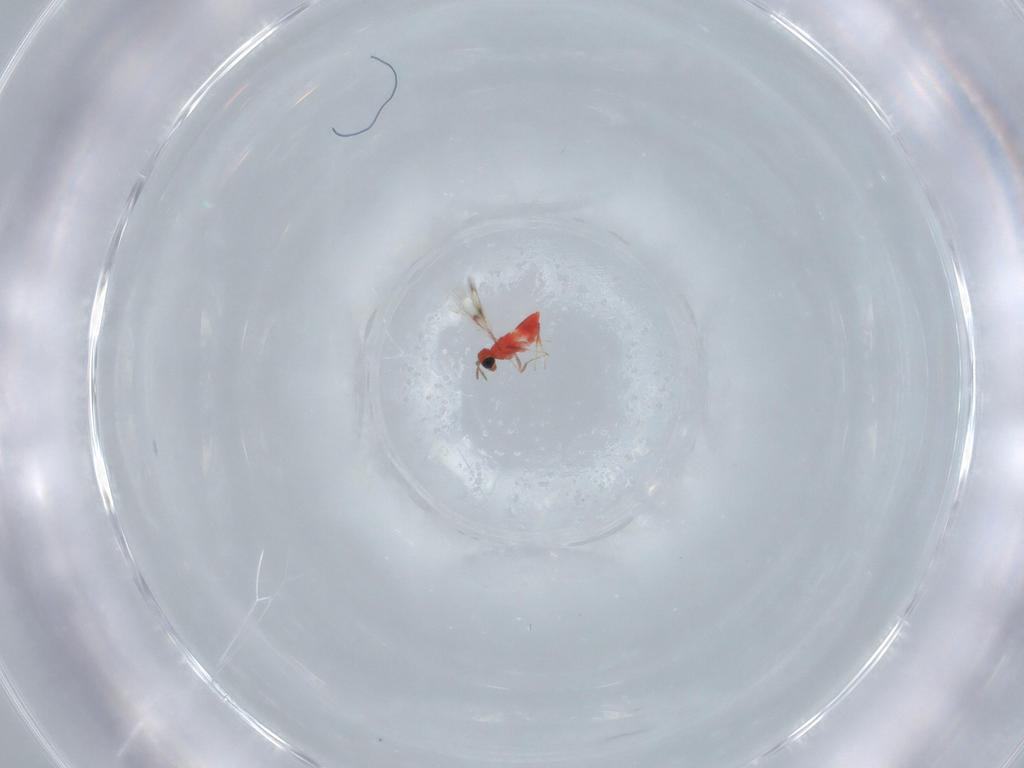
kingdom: Animalia
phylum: Arthropoda
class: Insecta
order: Hymenoptera
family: Trichogrammatidae
